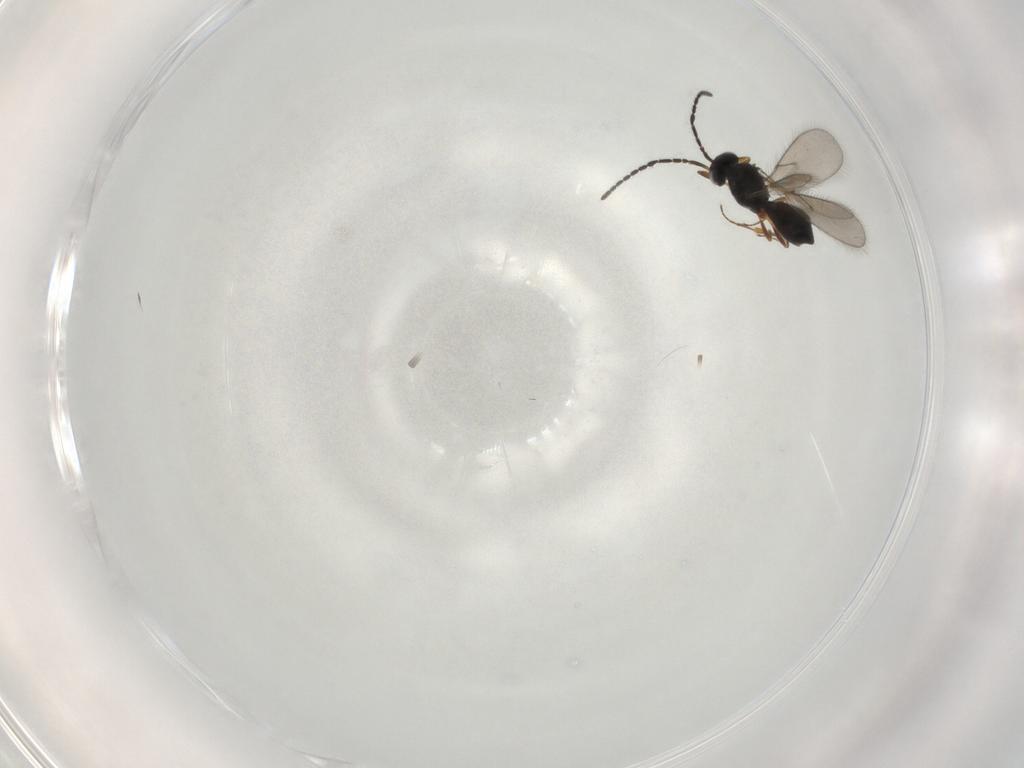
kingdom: Animalia
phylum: Arthropoda
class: Insecta
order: Hymenoptera
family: Scelionidae
